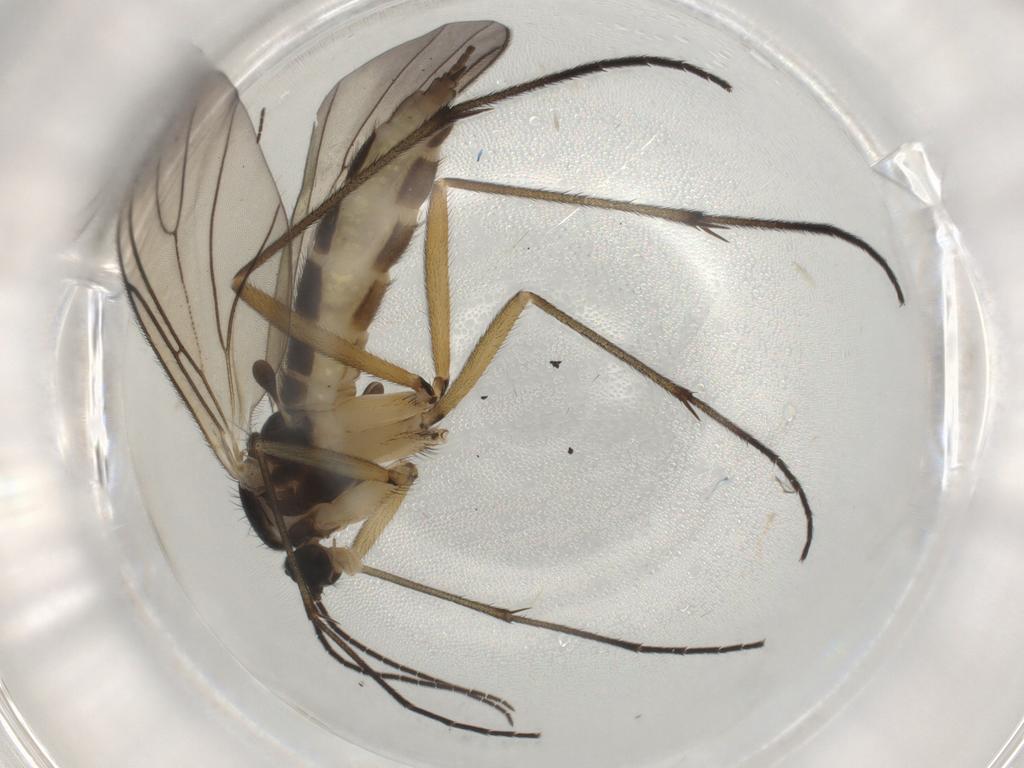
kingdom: Animalia
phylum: Arthropoda
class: Insecta
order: Diptera
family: Sciaridae
